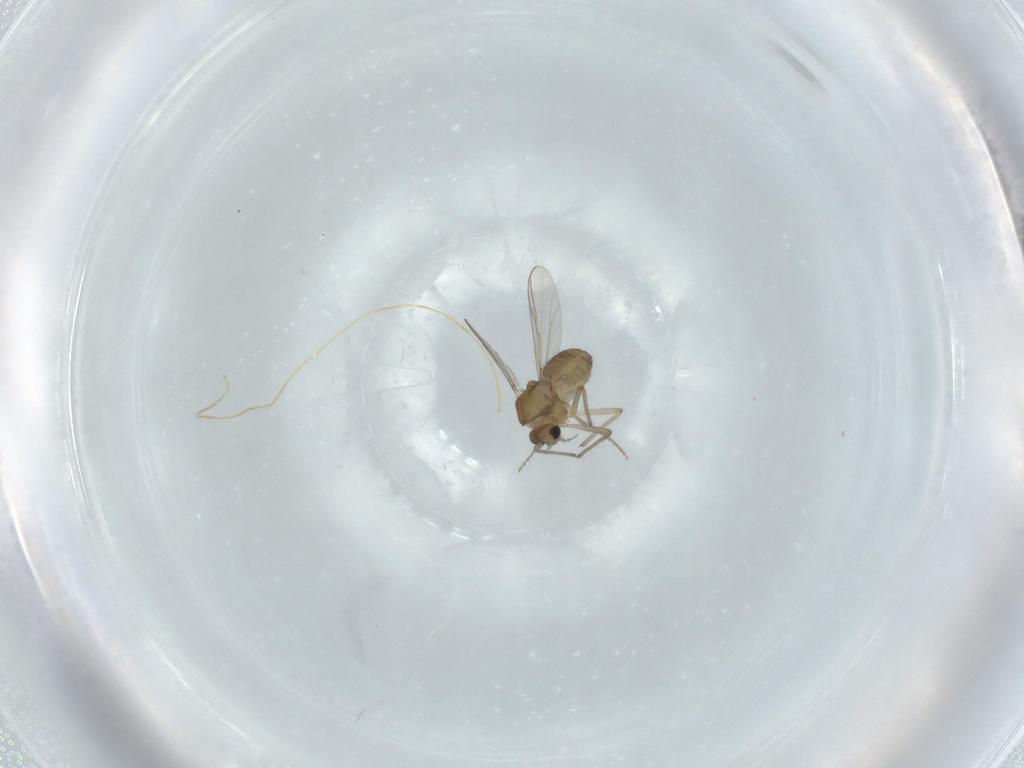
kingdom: Animalia
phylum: Arthropoda
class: Insecta
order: Diptera
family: Chironomidae
